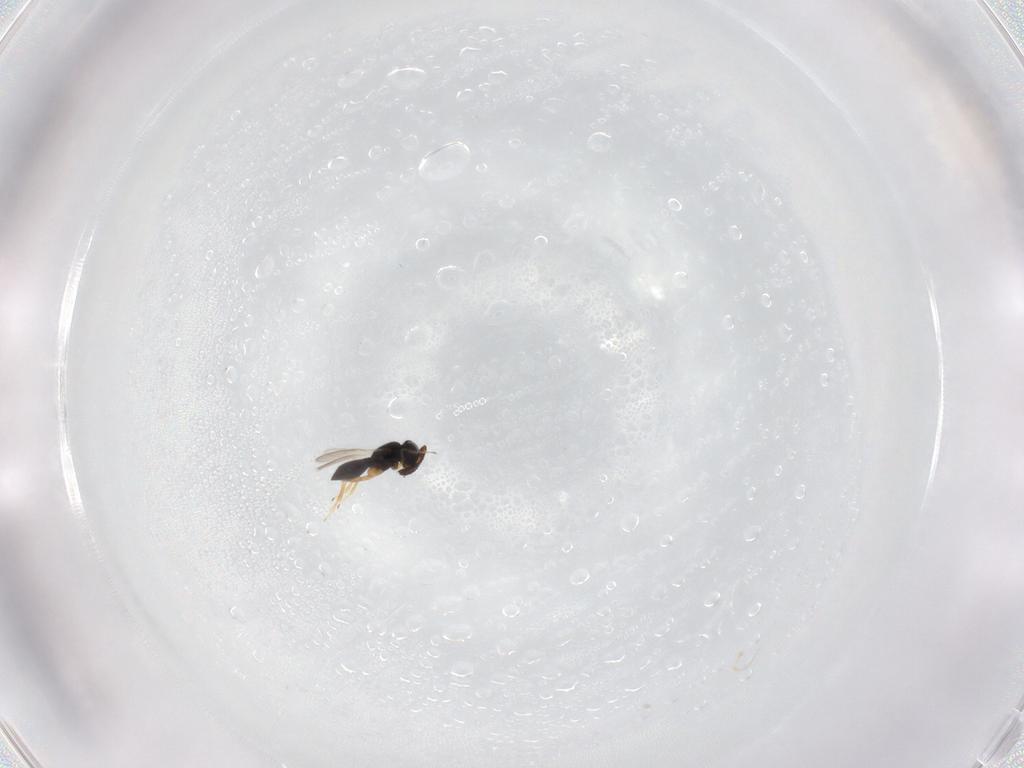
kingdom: Animalia
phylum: Arthropoda
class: Insecta
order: Hymenoptera
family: Scelionidae
